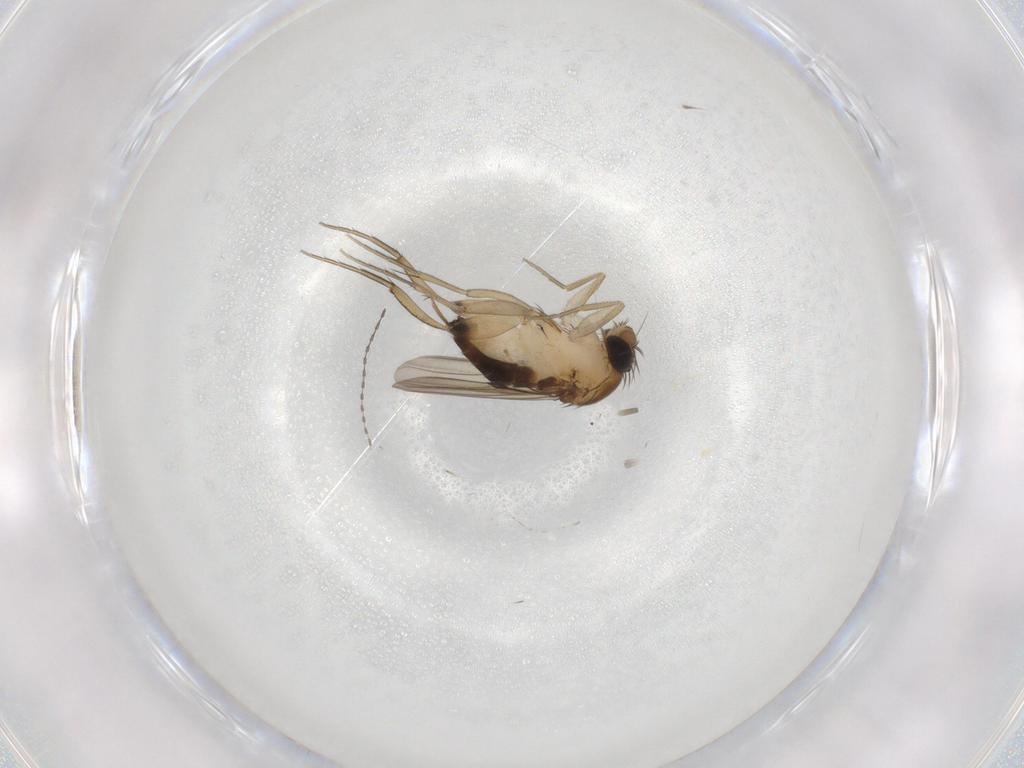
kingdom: Animalia
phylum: Arthropoda
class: Insecta
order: Diptera
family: Phoridae
